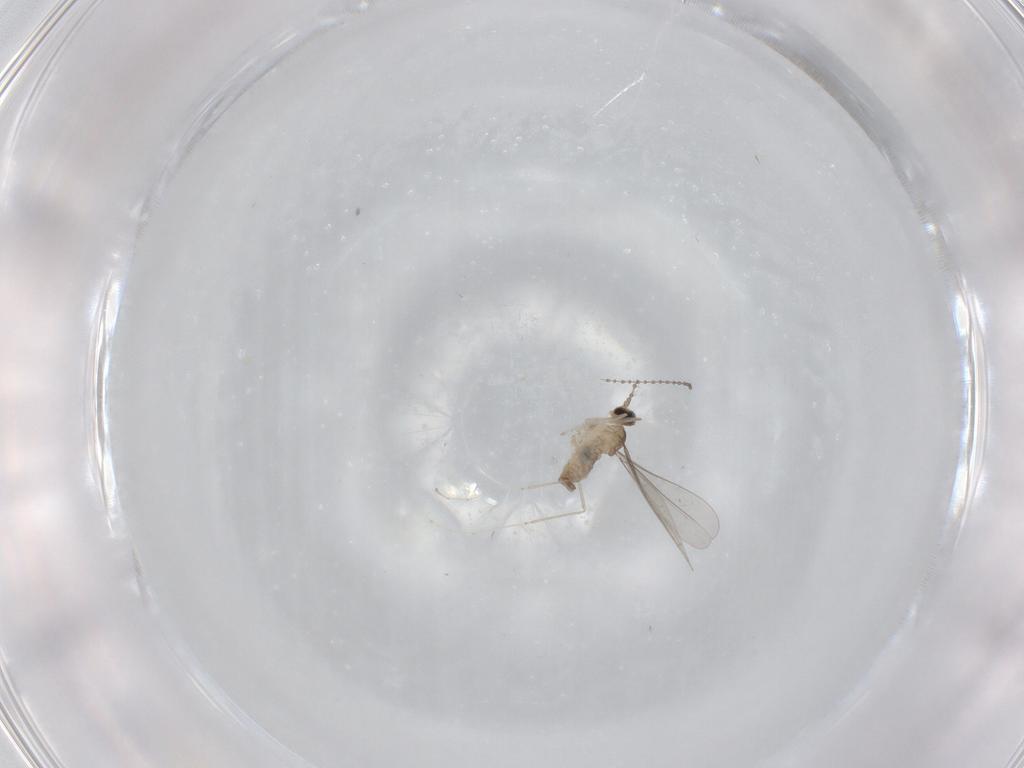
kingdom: Animalia
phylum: Arthropoda
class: Insecta
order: Diptera
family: Cecidomyiidae
